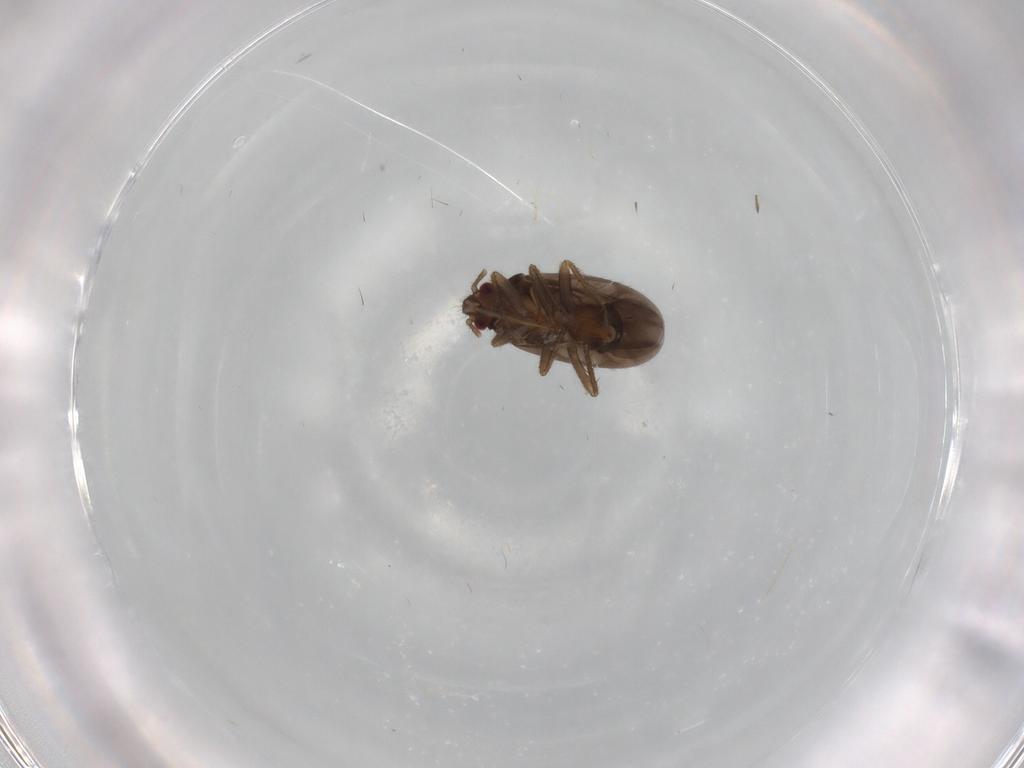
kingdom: Animalia
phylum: Arthropoda
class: Insecta
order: Hemiptera
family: Ceratocombidae
